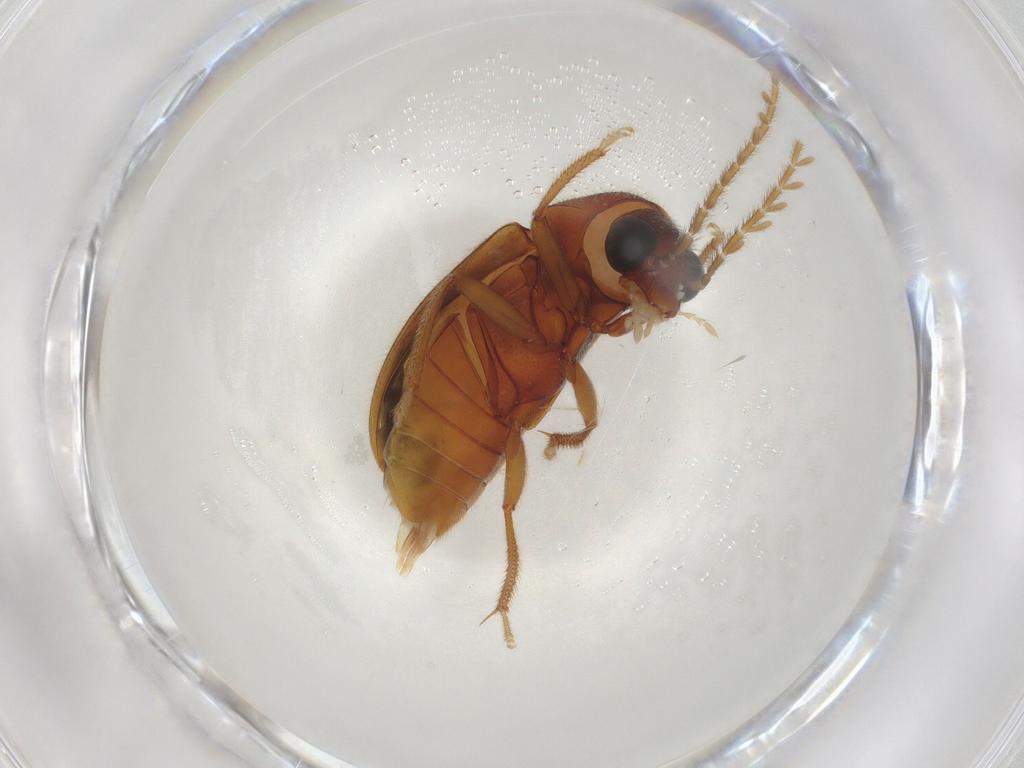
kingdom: Animalia
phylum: Arthropoda
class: Insecta
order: Coleoptera
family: Ptilodactylidae
